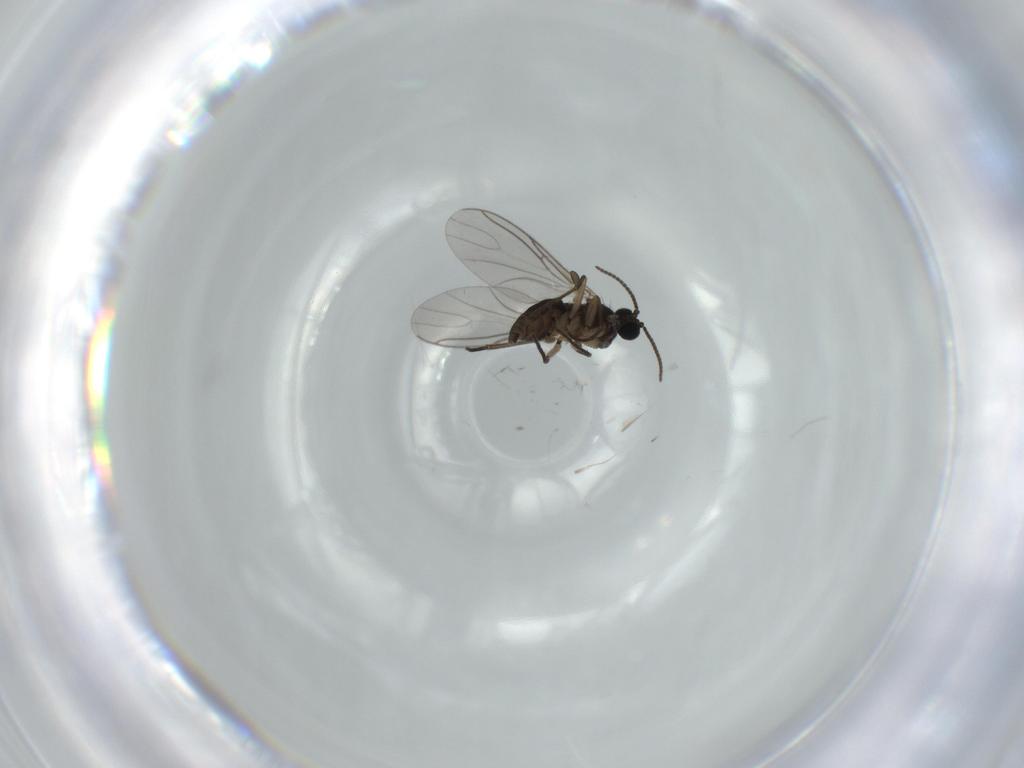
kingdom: Animalia
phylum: Arthropoda
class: Insecta
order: Diptera
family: Sciaridae
